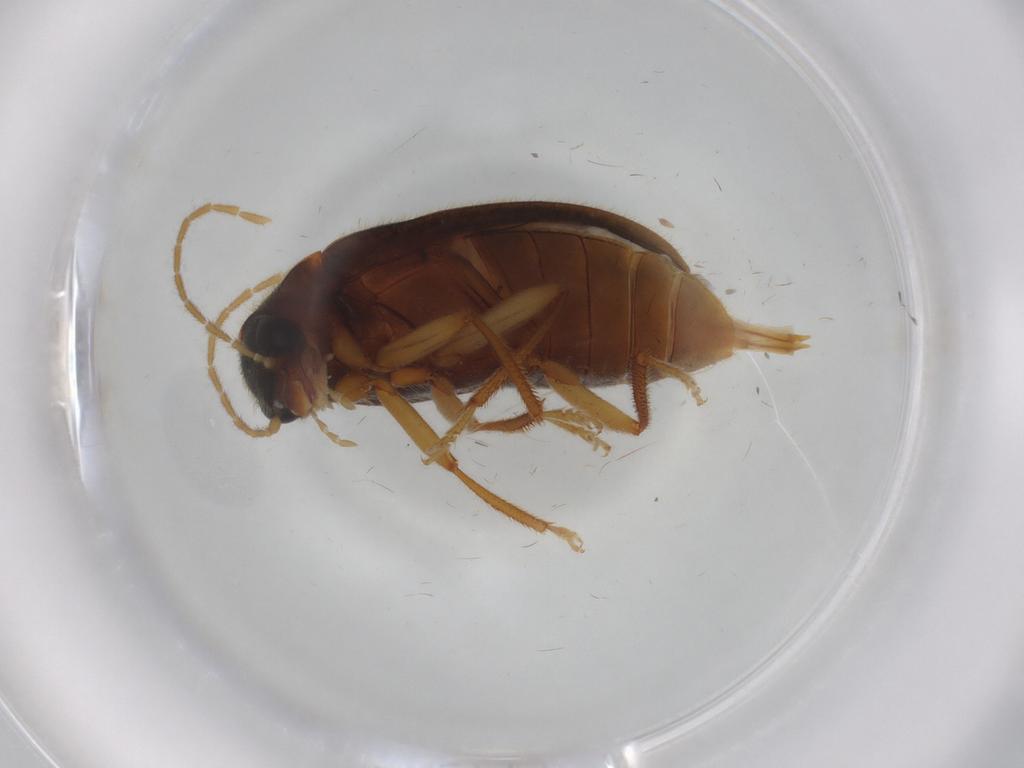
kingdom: Animalia
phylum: Arthropoda
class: Insecta
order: Coleoptera
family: Ptilodactylidae
